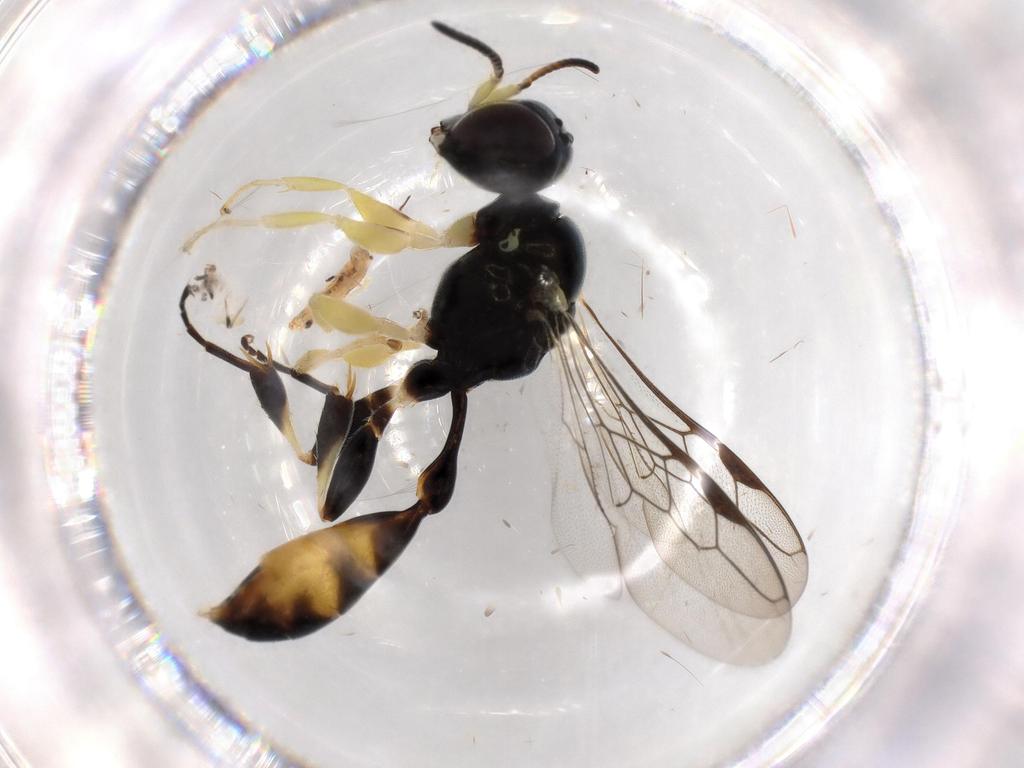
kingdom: Animalia
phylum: Arthropoda
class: Insecta
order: Hymenoptera
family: Crabronidae
